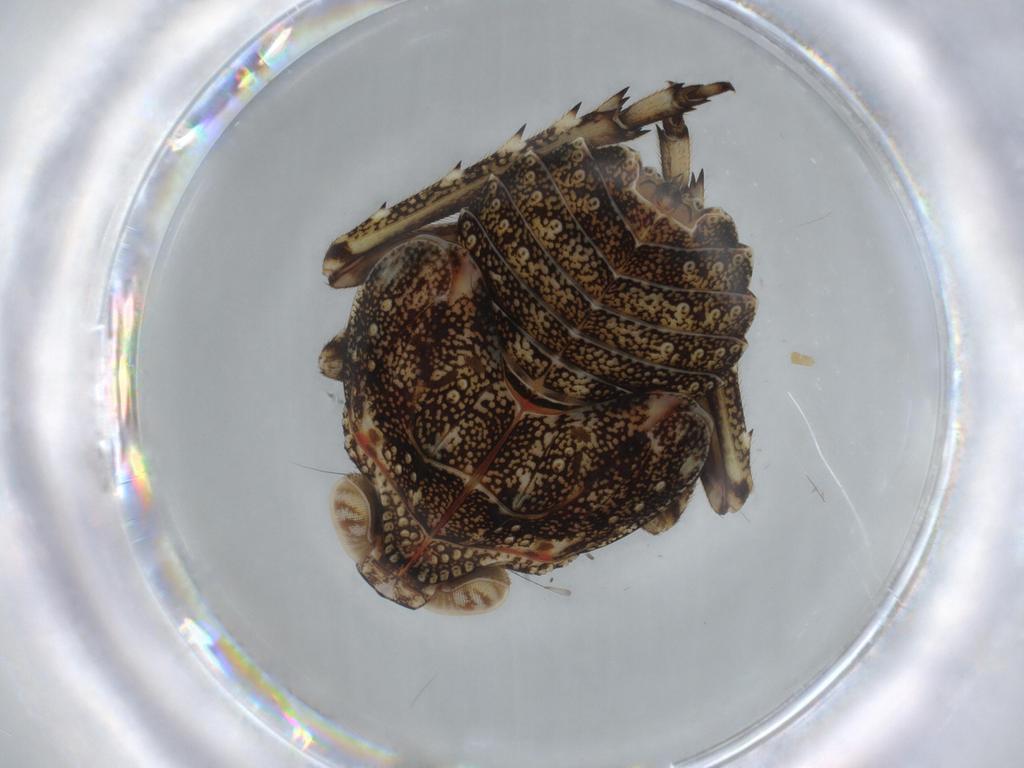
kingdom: Animalia
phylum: Arthropoda
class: Insecta
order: Hemiptera
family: Issidae
